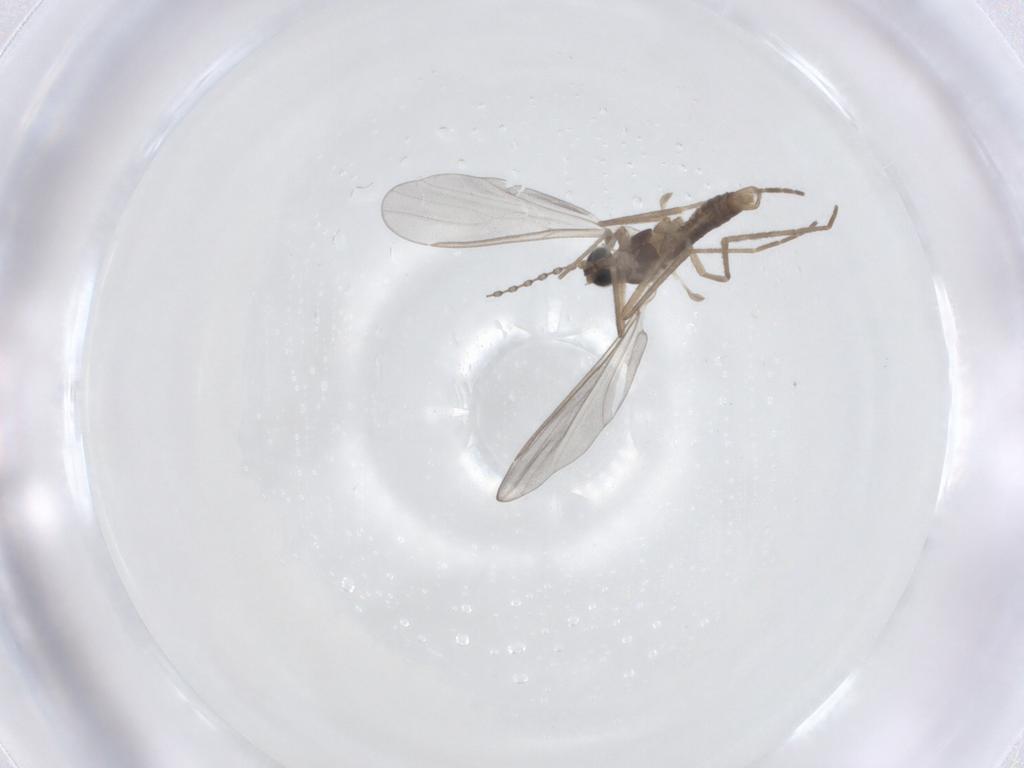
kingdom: Animalia
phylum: Arthropoda
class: Insecta
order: Diptera
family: Cecidomyiidae
